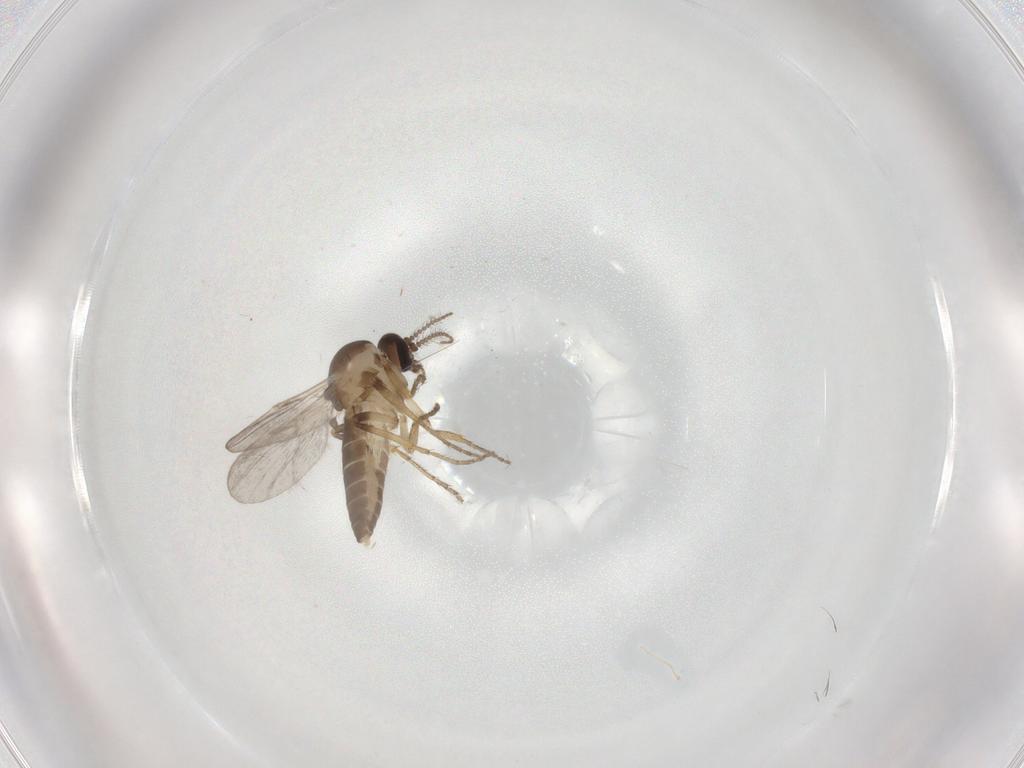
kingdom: Animalia
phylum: Arthropoda
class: Insecta
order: Diptera
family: Ceratopogonidae
